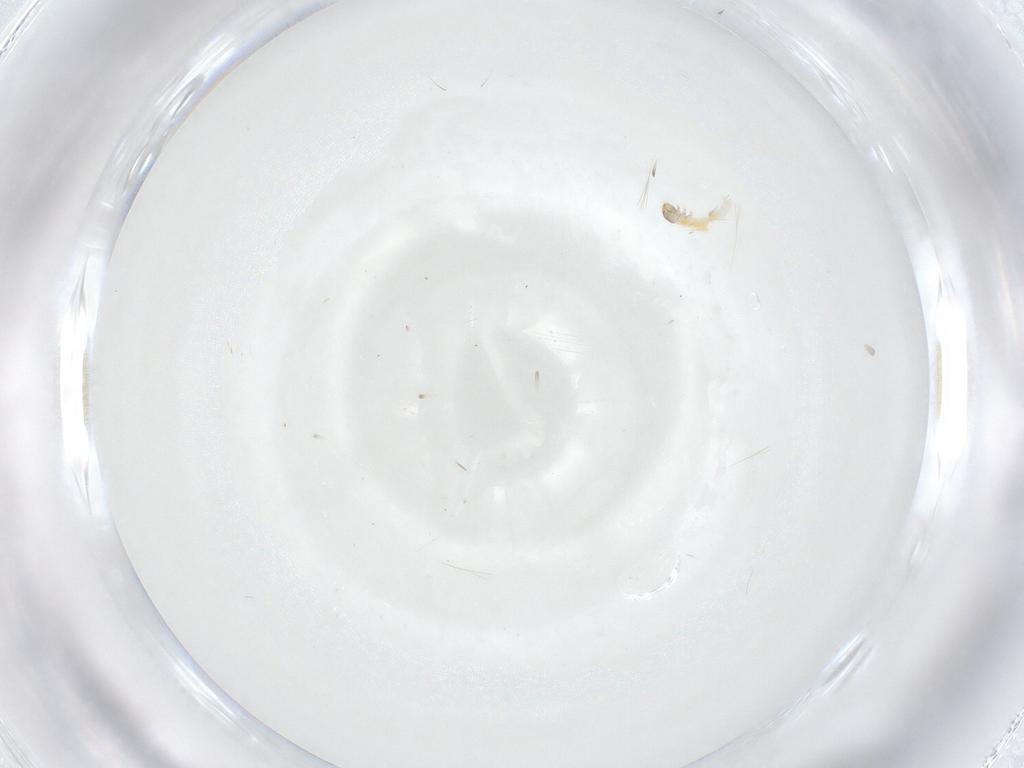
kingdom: Animalia
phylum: Arthropoda
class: Insecta
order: Lepidoptera
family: Lecithoceridae
